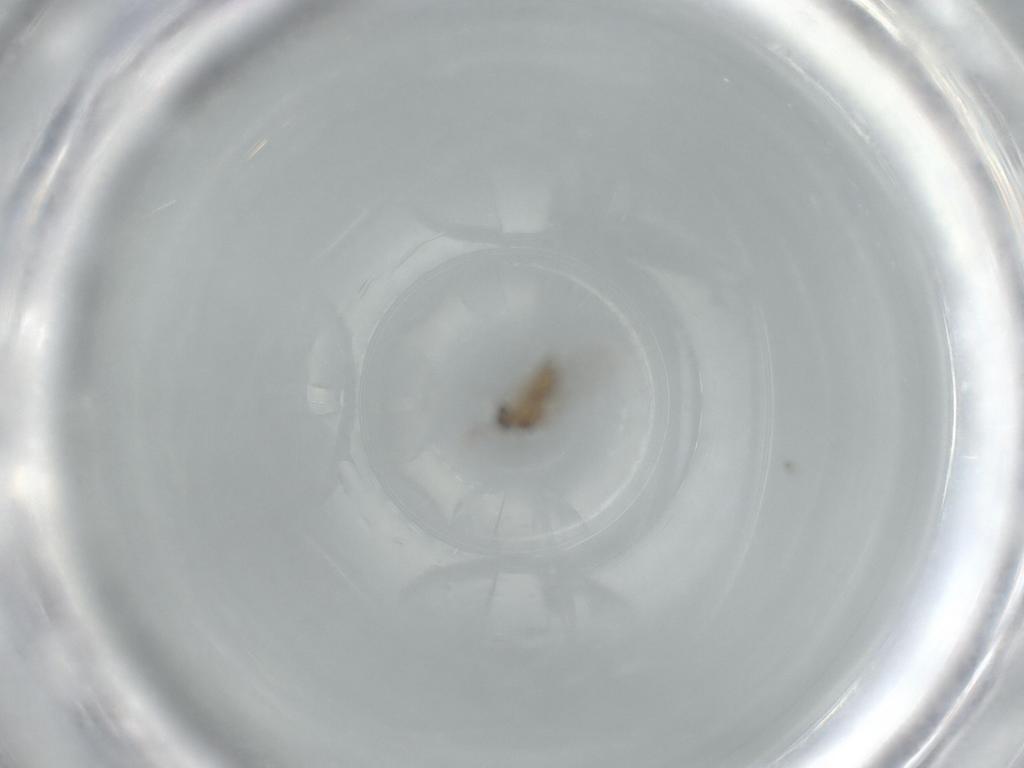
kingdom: Animalia
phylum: Arthropoda
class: Insecta
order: Diptera
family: Cecidomyiidae
